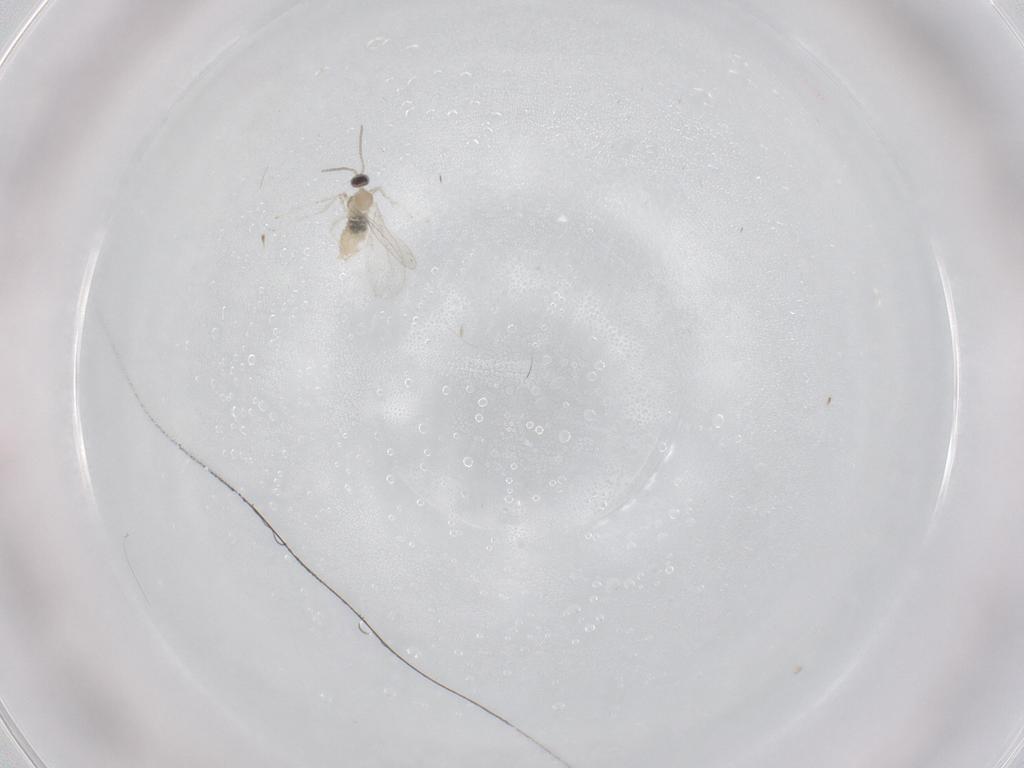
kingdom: Animalia
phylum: Arthropoda
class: Insecta
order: Diptera
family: Cecidomyiidae
